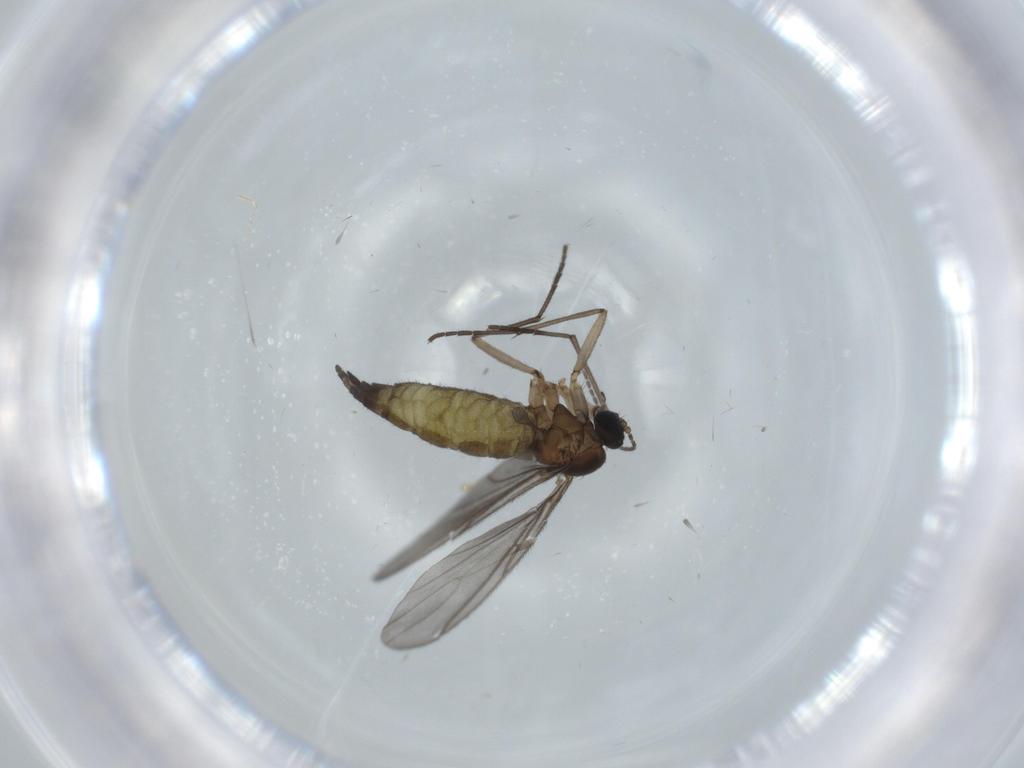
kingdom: Animalia
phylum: Arthropoda
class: Insecta
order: Diptera
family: Sciaridae
